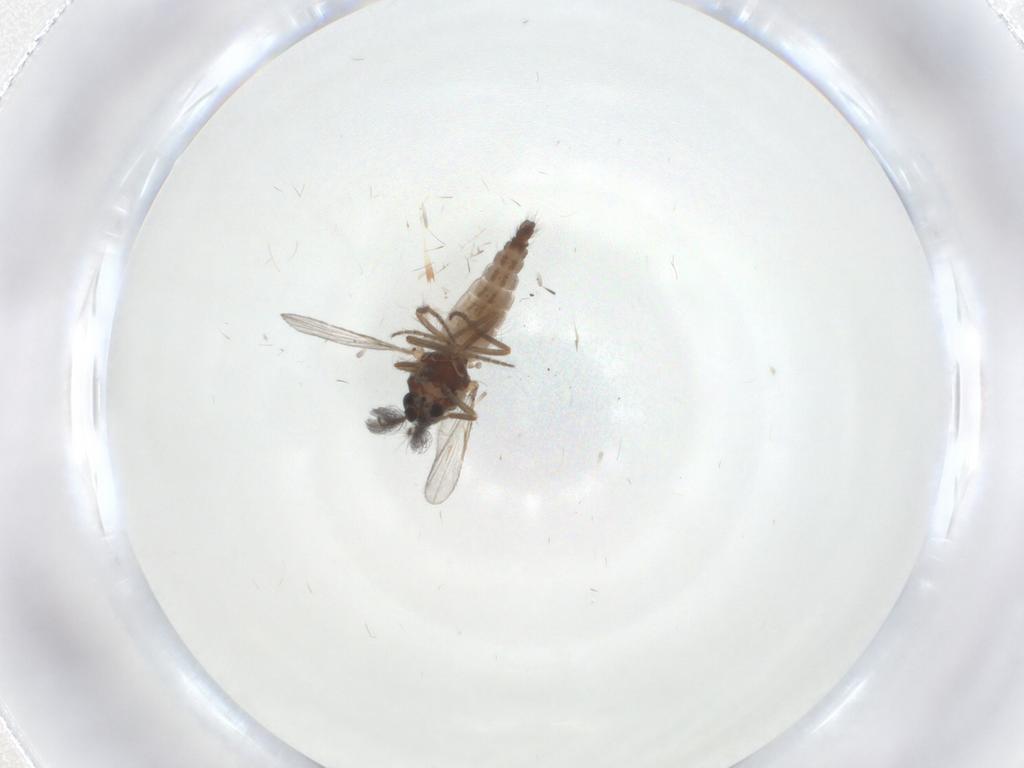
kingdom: Animalia
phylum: Arthropoda
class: Insecta
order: Diptera
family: Ceratopogonidae
